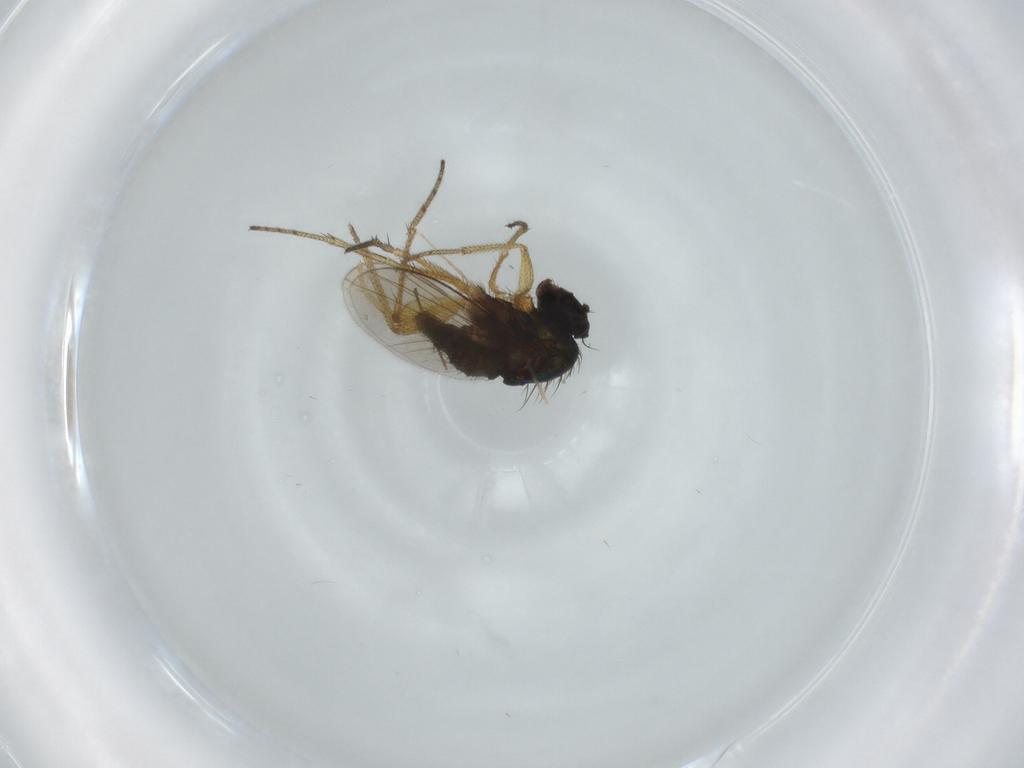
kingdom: Animalia
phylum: Arthropoda
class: Insecta
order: Diptera
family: Dolichopodidae
